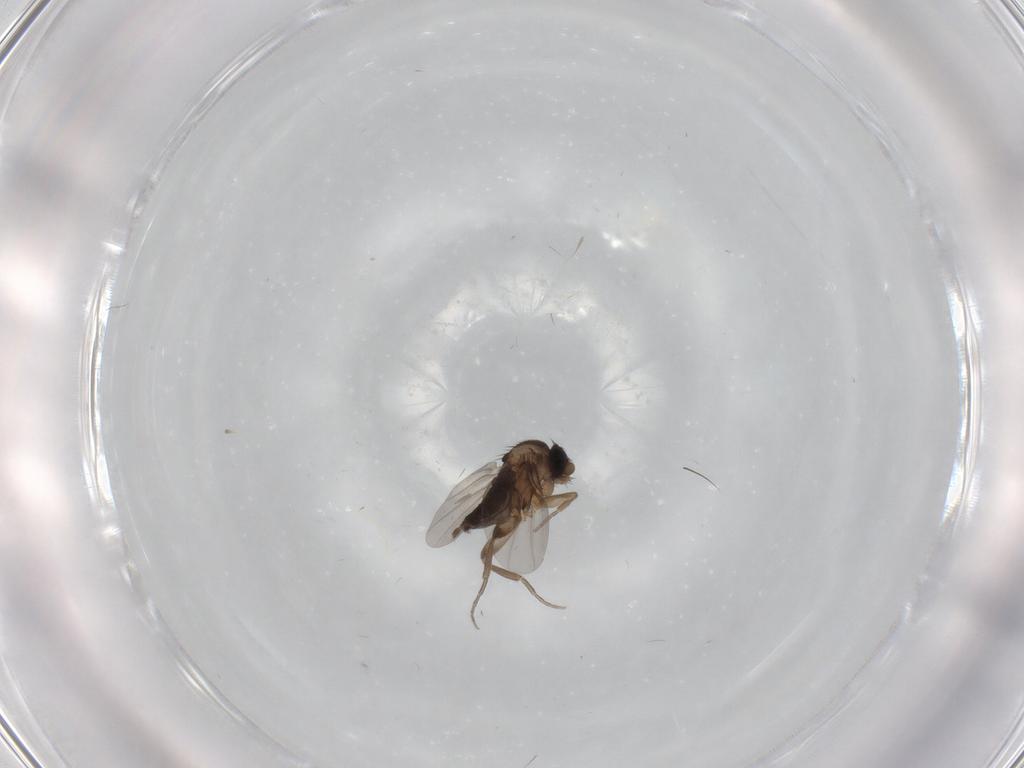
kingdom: Animalia
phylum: Arthropoda
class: Insecta
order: Diptera
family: Phoridae
